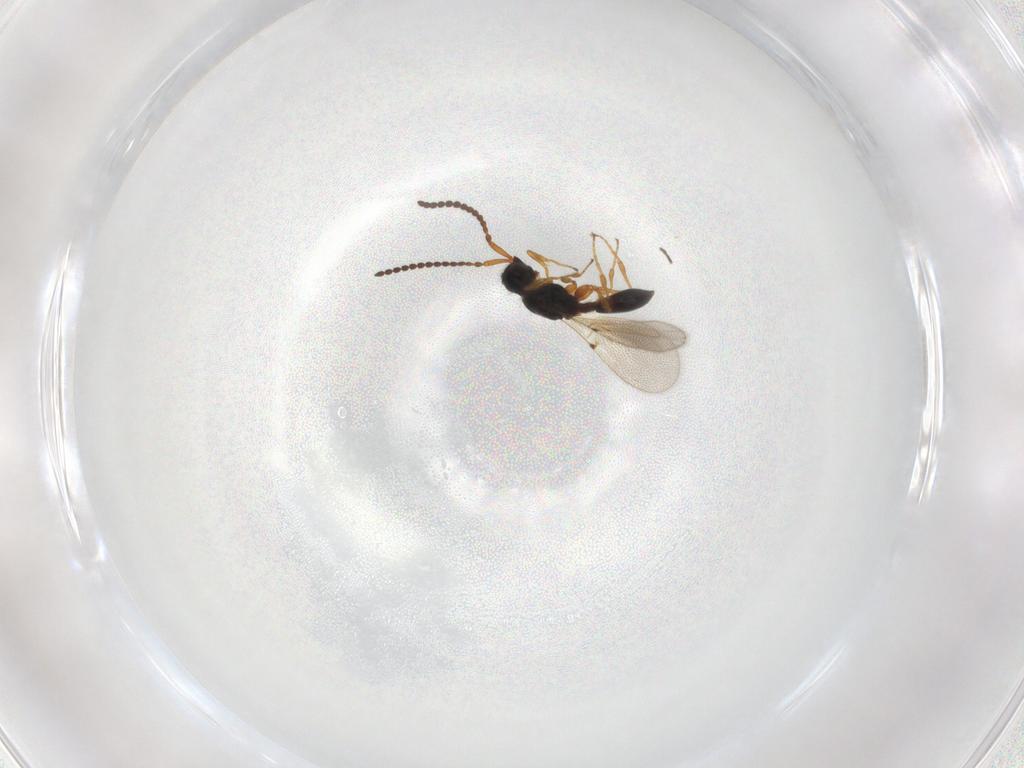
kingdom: Animalia
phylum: Arthropoda
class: Insecta
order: Hymenoptera
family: Diapriidae
